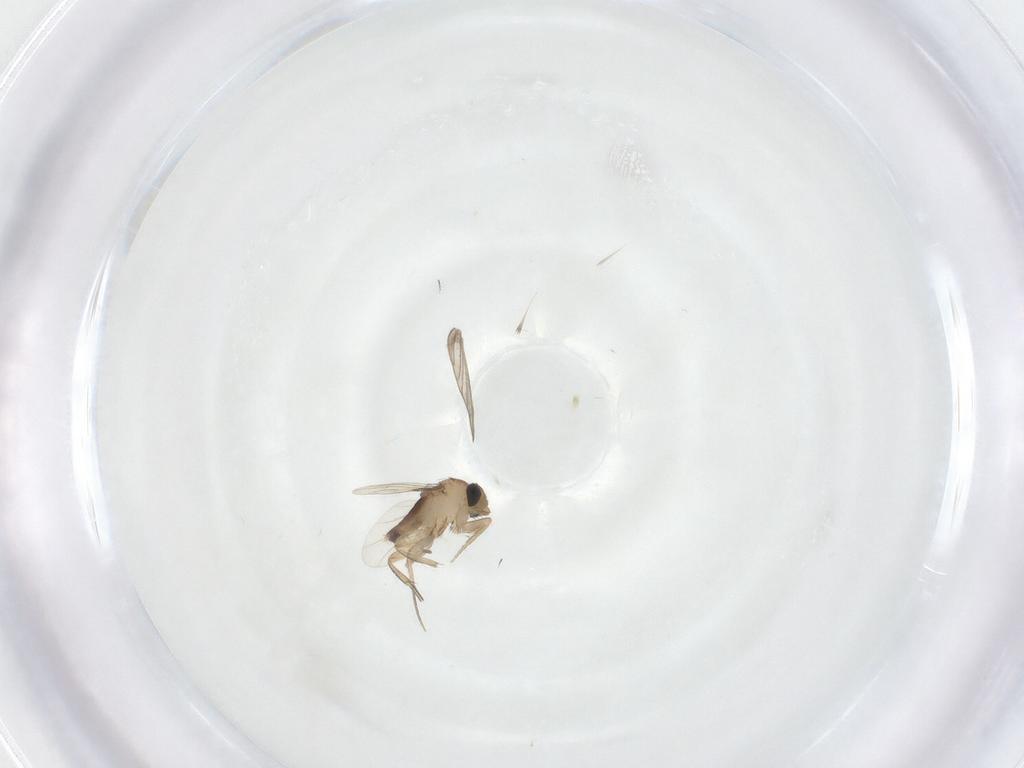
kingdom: Animalia
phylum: Arthropoda
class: Insecta
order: Diptera
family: Phoridae
